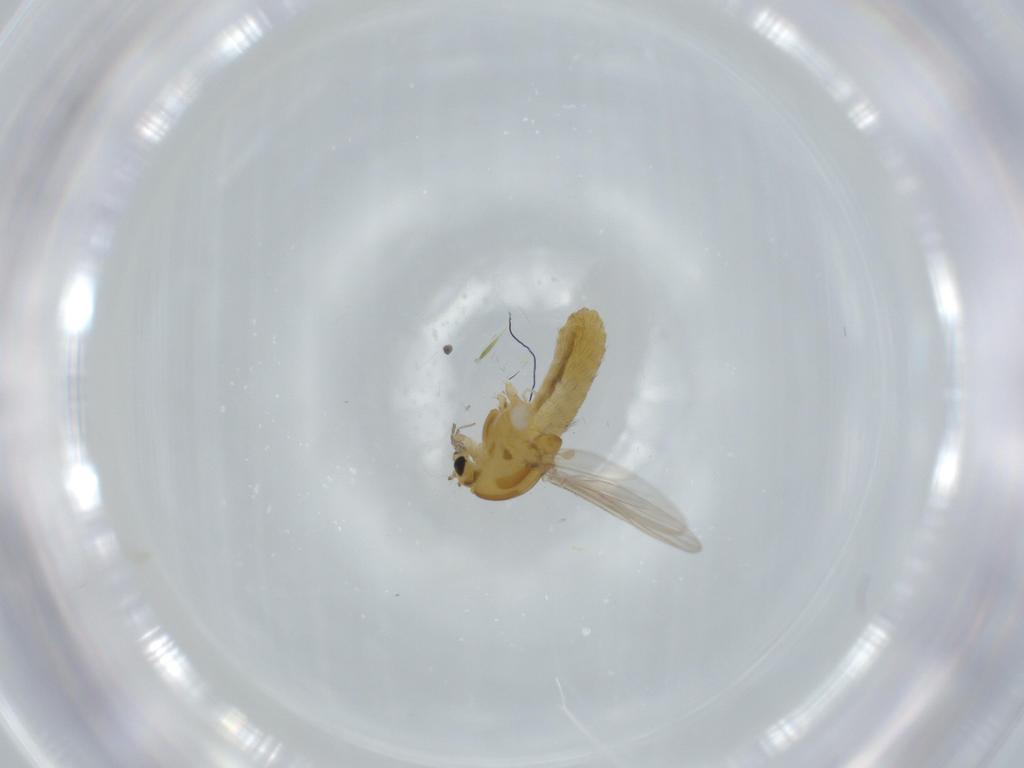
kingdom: Animalia
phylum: Arthropoda
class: Insecta
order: Diptera
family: Chironomidae
